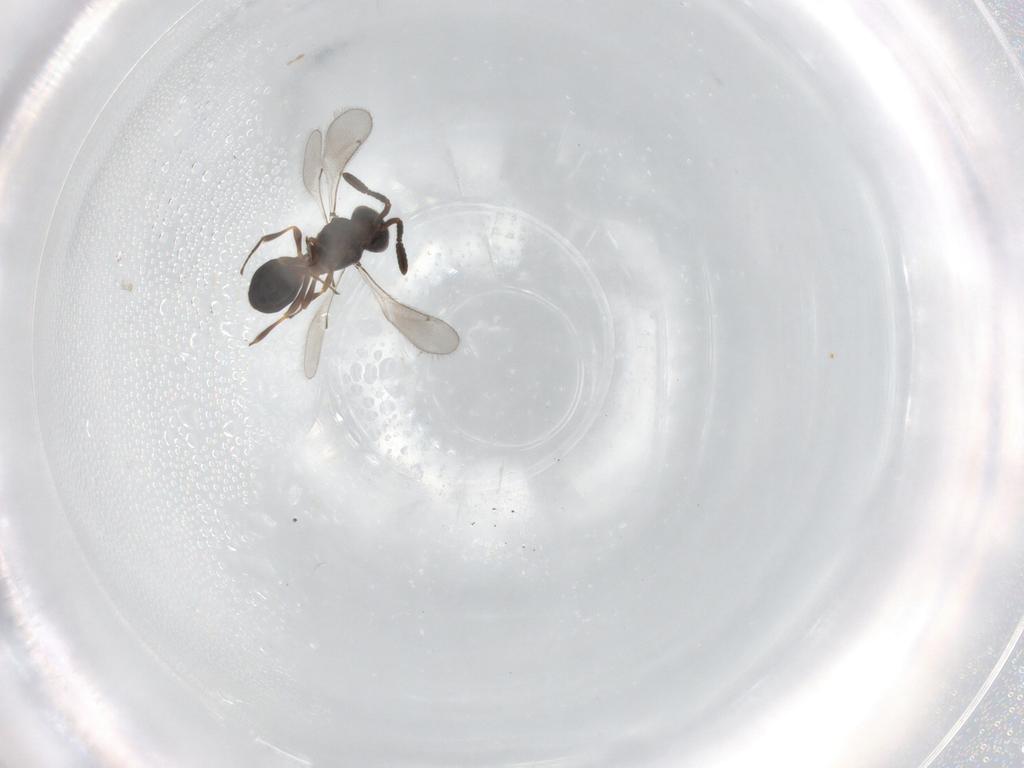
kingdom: Animalia
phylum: Arthropoda
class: Insecta
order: Hymenoptera
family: Scelionidae
